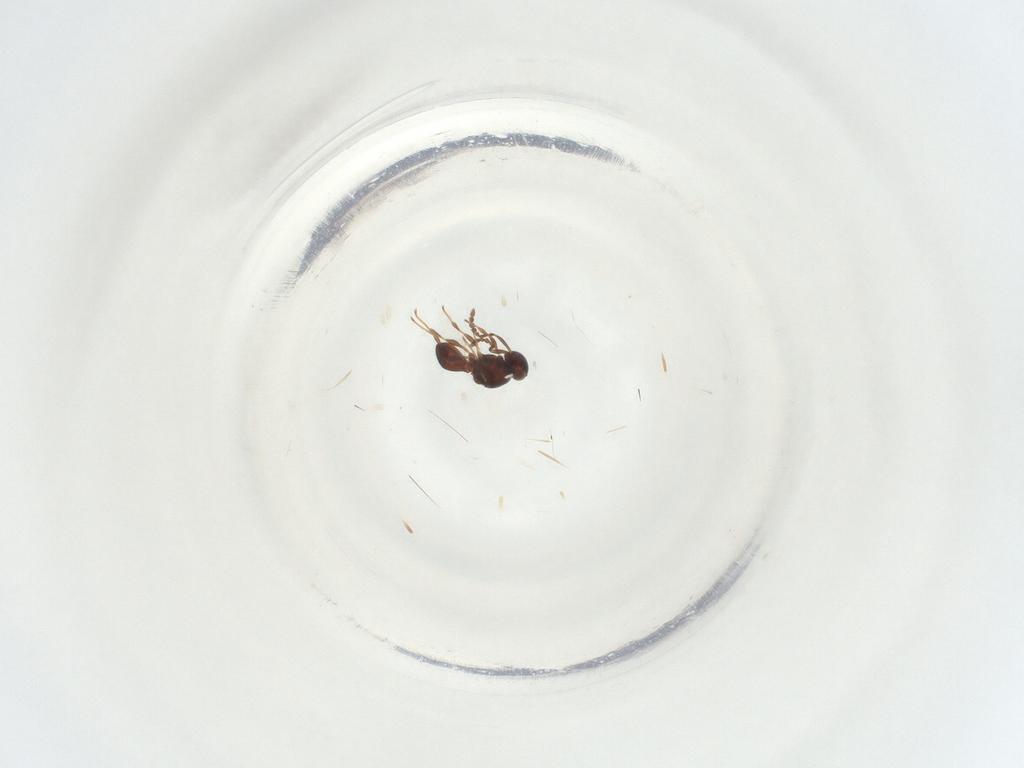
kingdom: Animalia
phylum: Arthropoda
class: Insecta
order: Hymenoptera
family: Platygastridae
